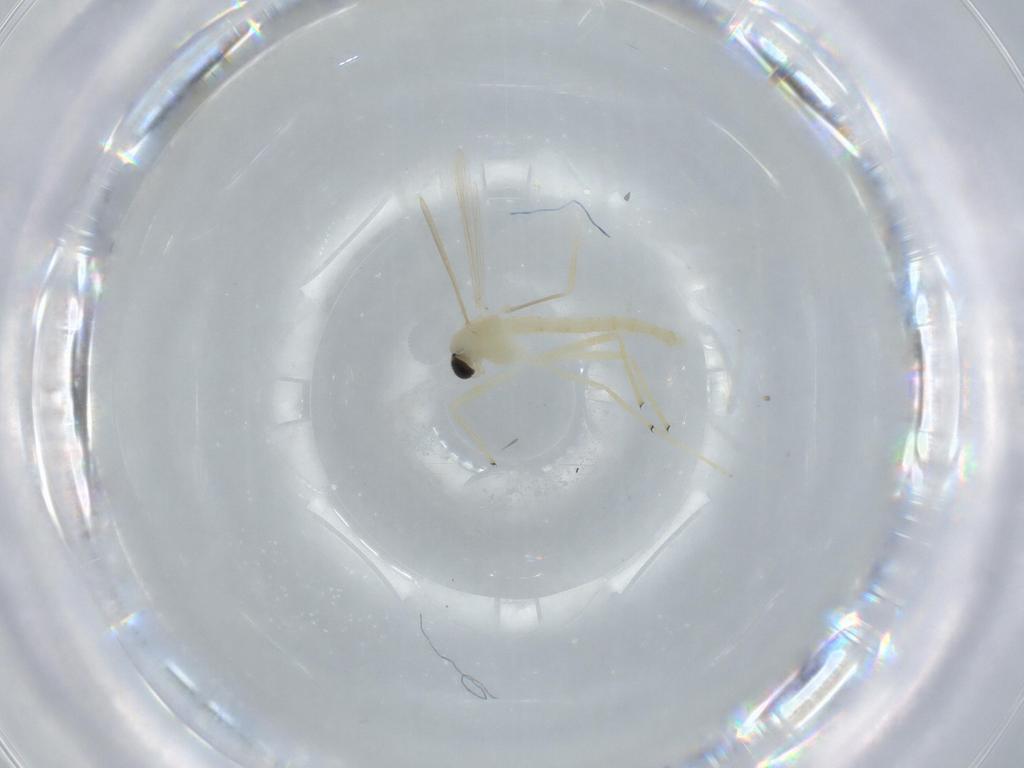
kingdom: Animalia
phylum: Arthropoda
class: Insecta
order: Diptera
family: Chironomidae
